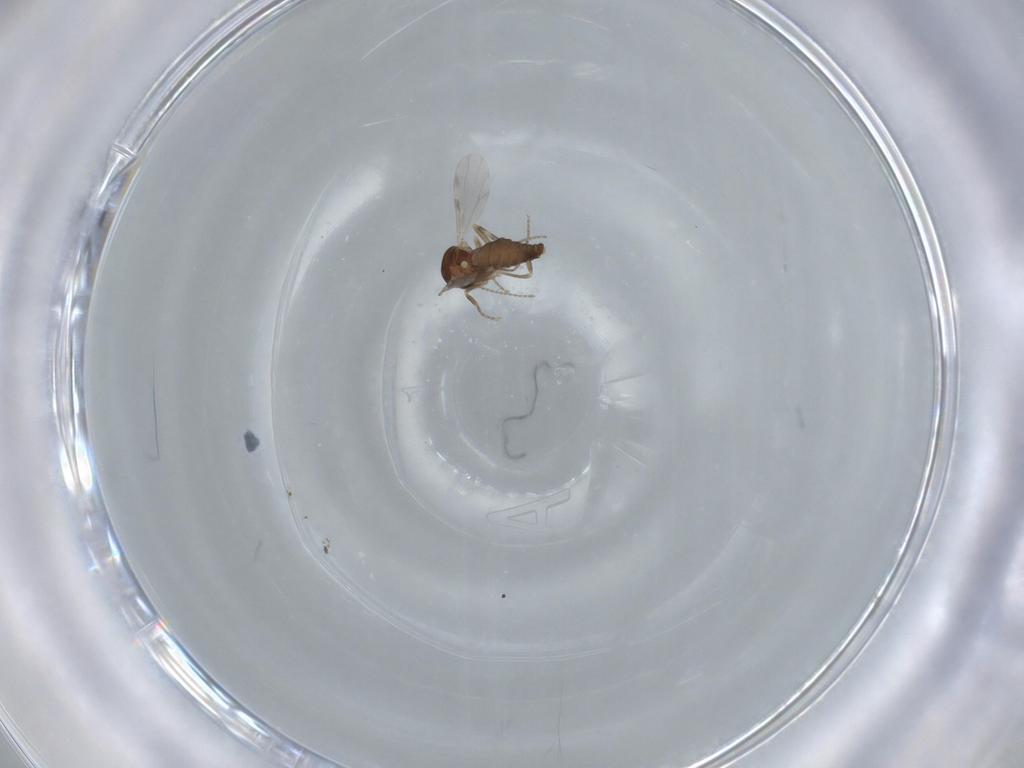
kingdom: Animalia
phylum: Arthropoda
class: Insecta
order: Diptera
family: Ceratopogonidae
